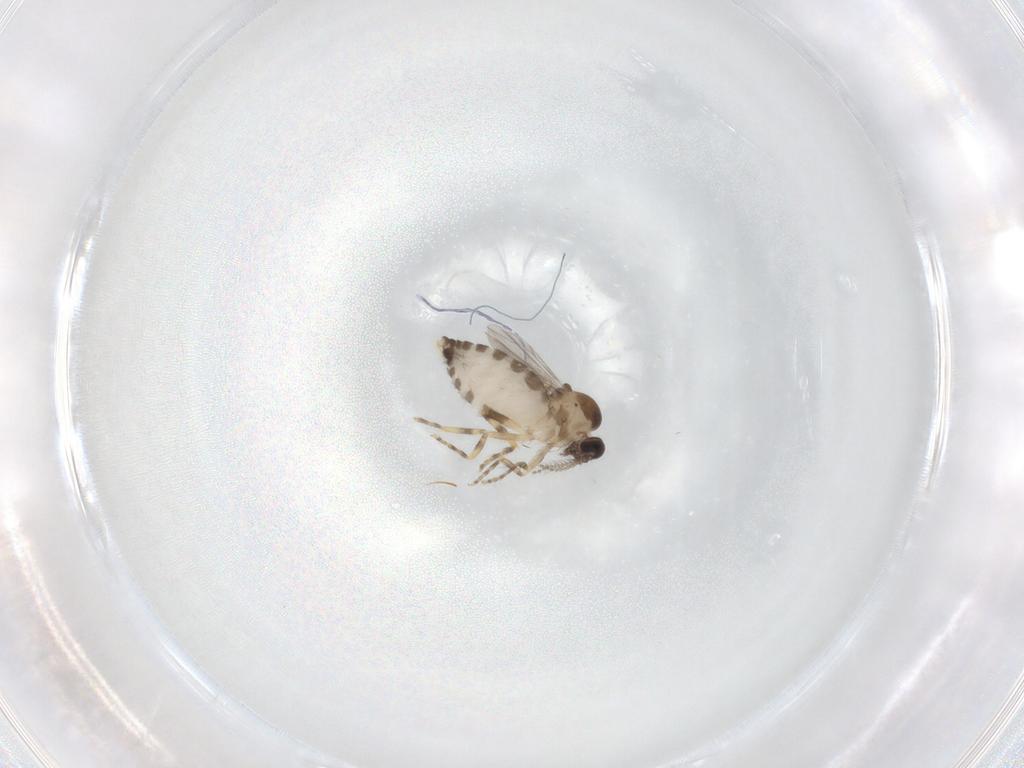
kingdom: Animalia
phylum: Arthropoda
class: Insecta
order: Diptera
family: Ceratopogonidae
